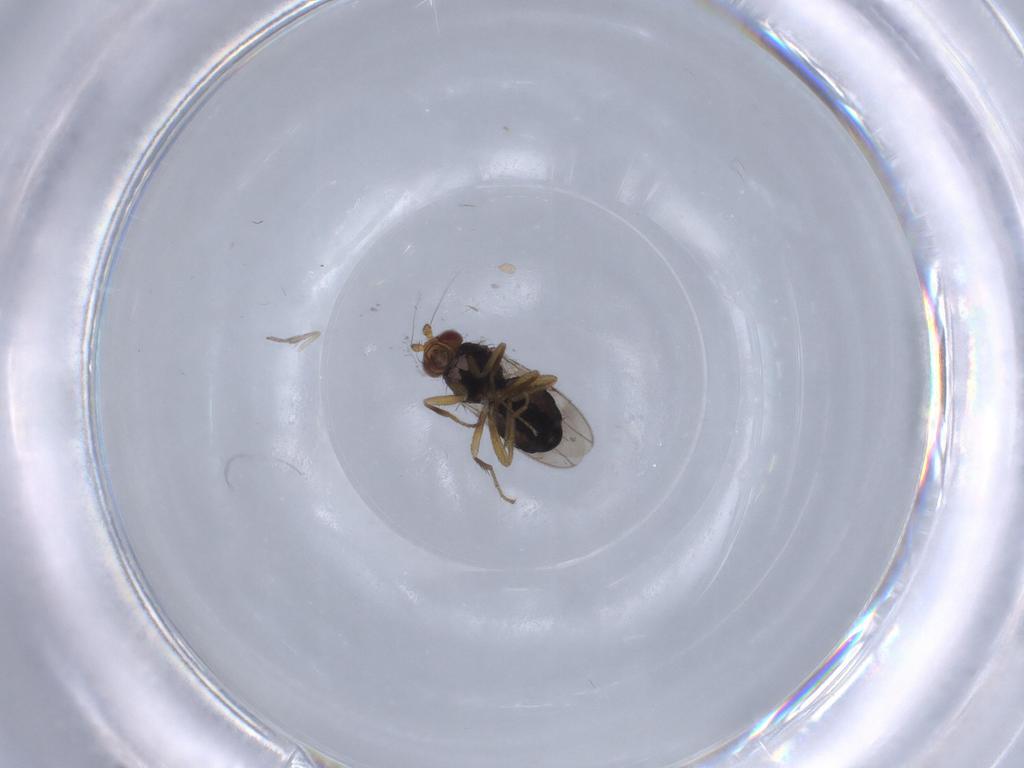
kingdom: Animalia
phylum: Arthropoda
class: Insecta
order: Diptera
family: Sphaeroceridae
